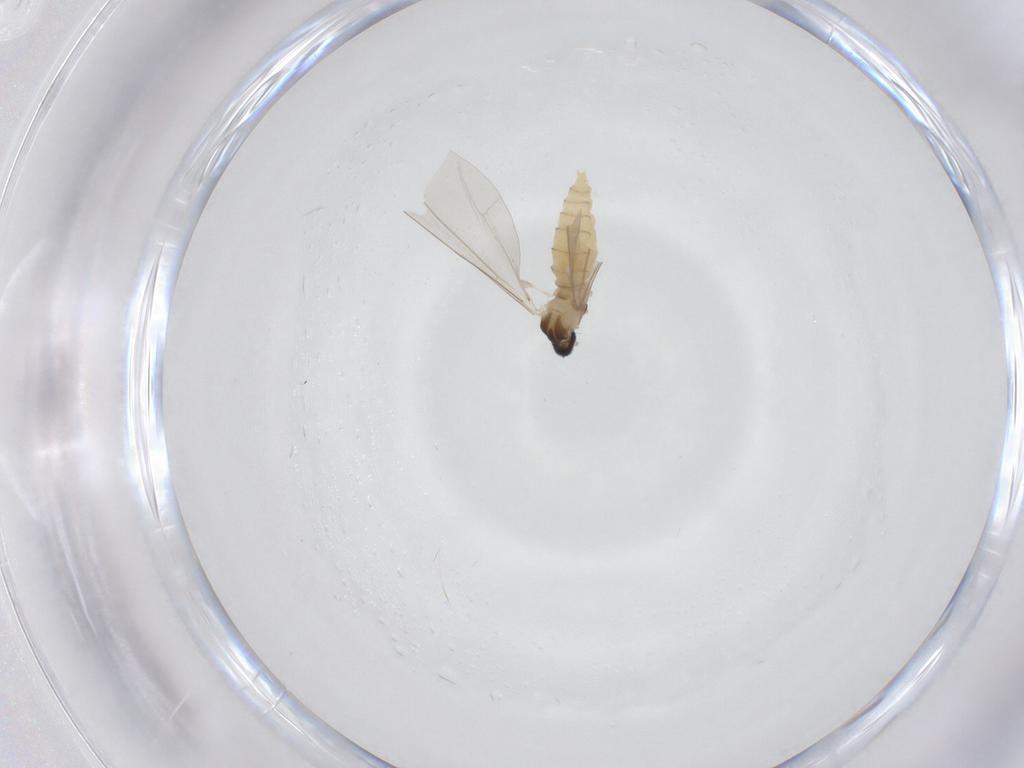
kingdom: Animalia
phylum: Arthropoda
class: Insecta
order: Diptera
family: Cecidomyiidae
